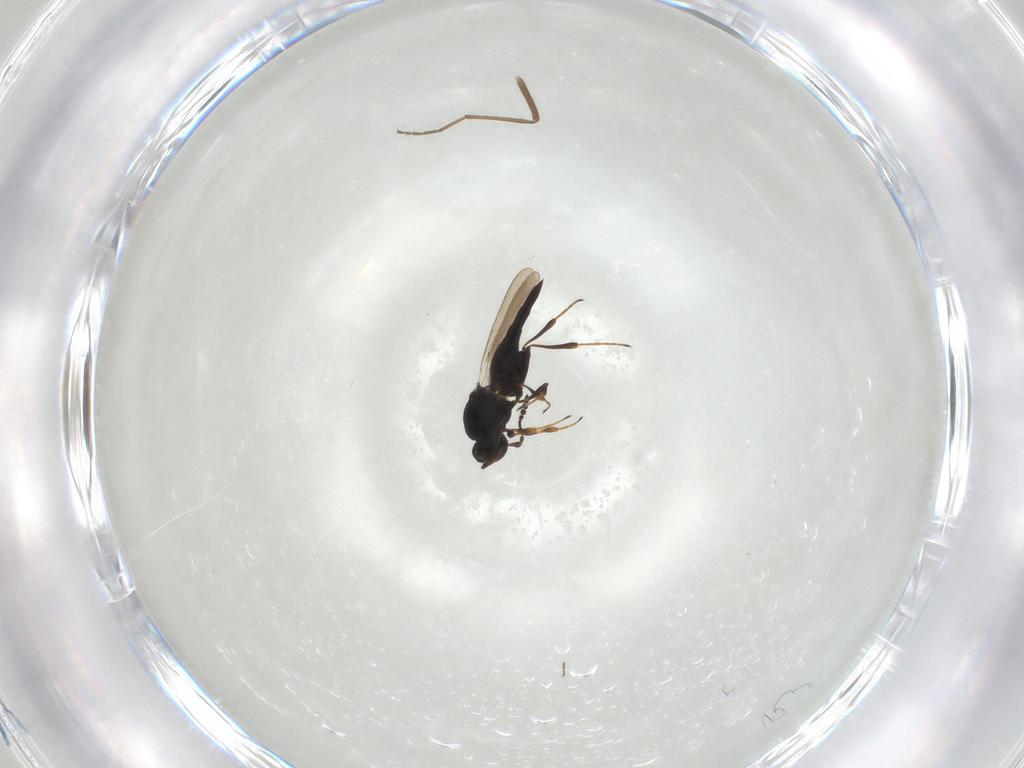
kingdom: Animalia
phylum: Arthropoda
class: Insecta
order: Hymenoptera
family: Platygastridae
